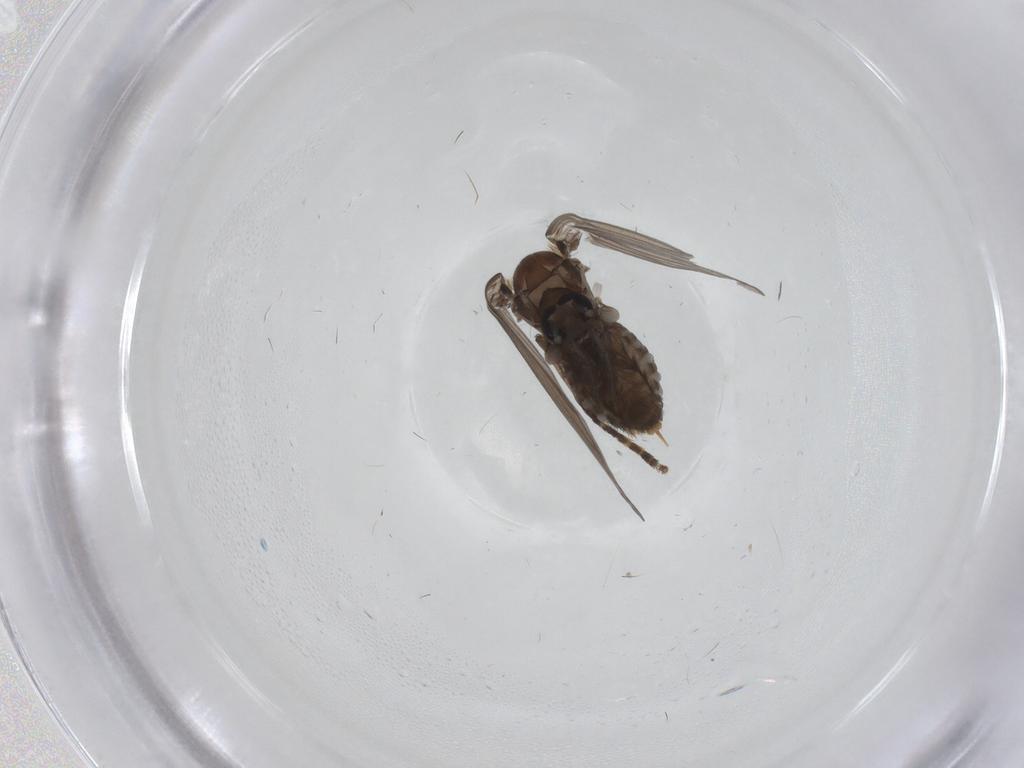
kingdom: Animalia
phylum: Arthropoda
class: Insecta
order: Diptera
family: Psychodidae
